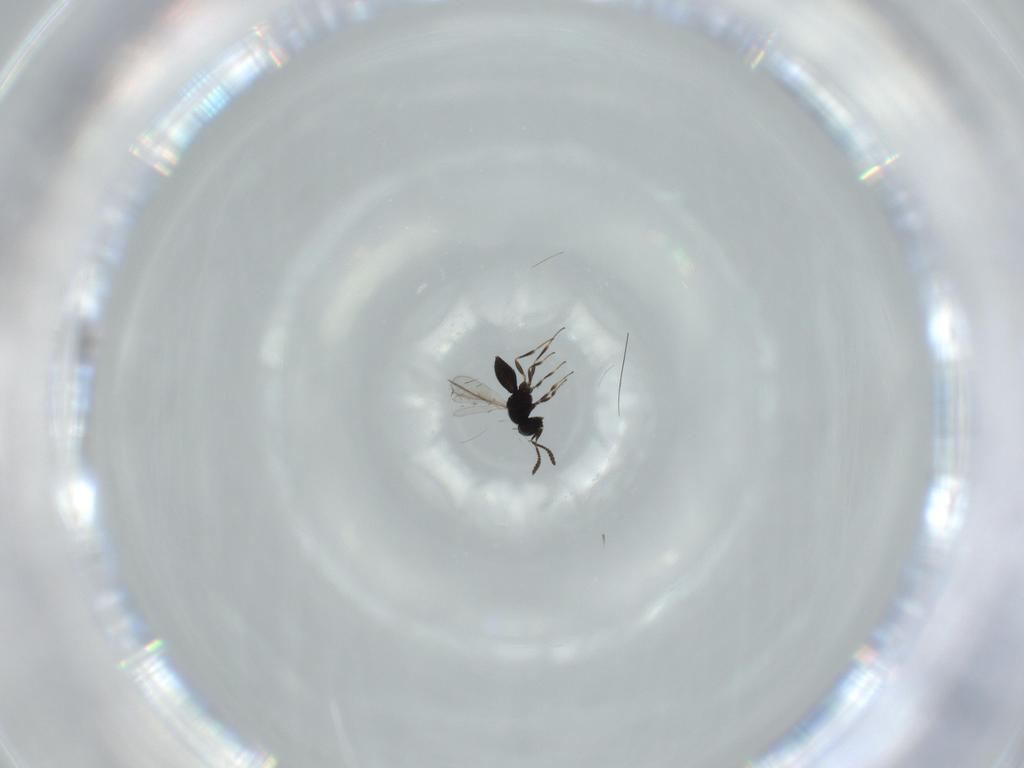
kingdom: Animalia
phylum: Arthropoda
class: Insecta
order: Hymenoptera
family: Scelionidae
